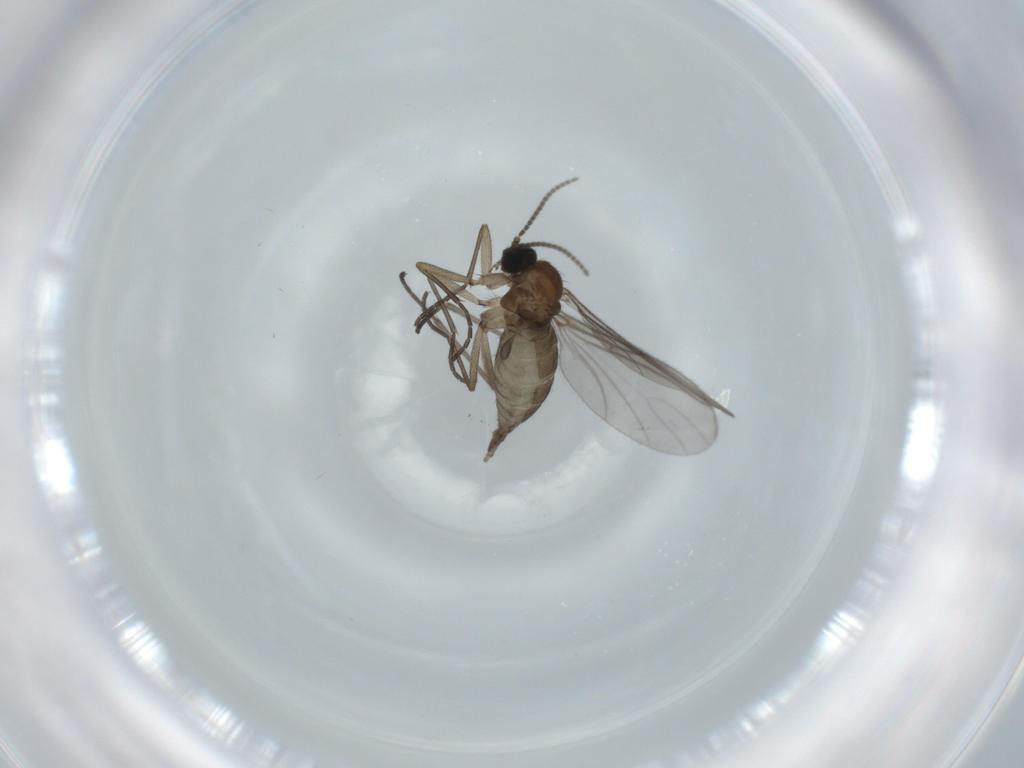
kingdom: Animalia
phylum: Arthropoda
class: Insecta
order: Diptera
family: Sciaridae
